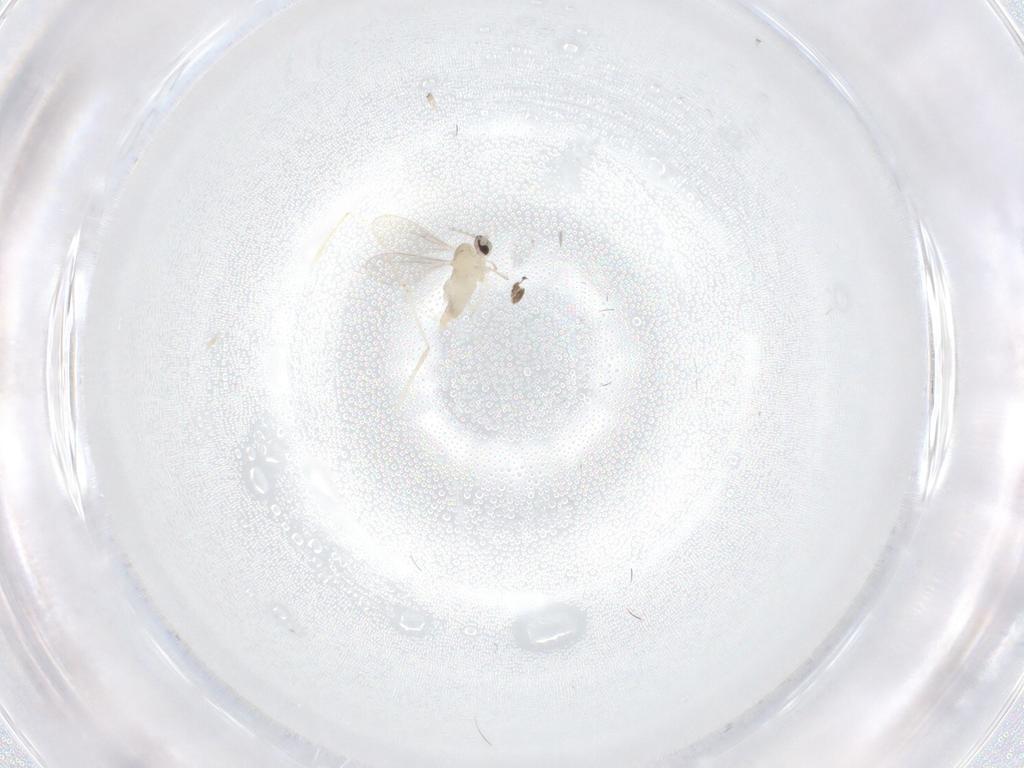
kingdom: Animalia
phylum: Arthropoda
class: Insecta
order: Diptera
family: Cecidomyiidae
